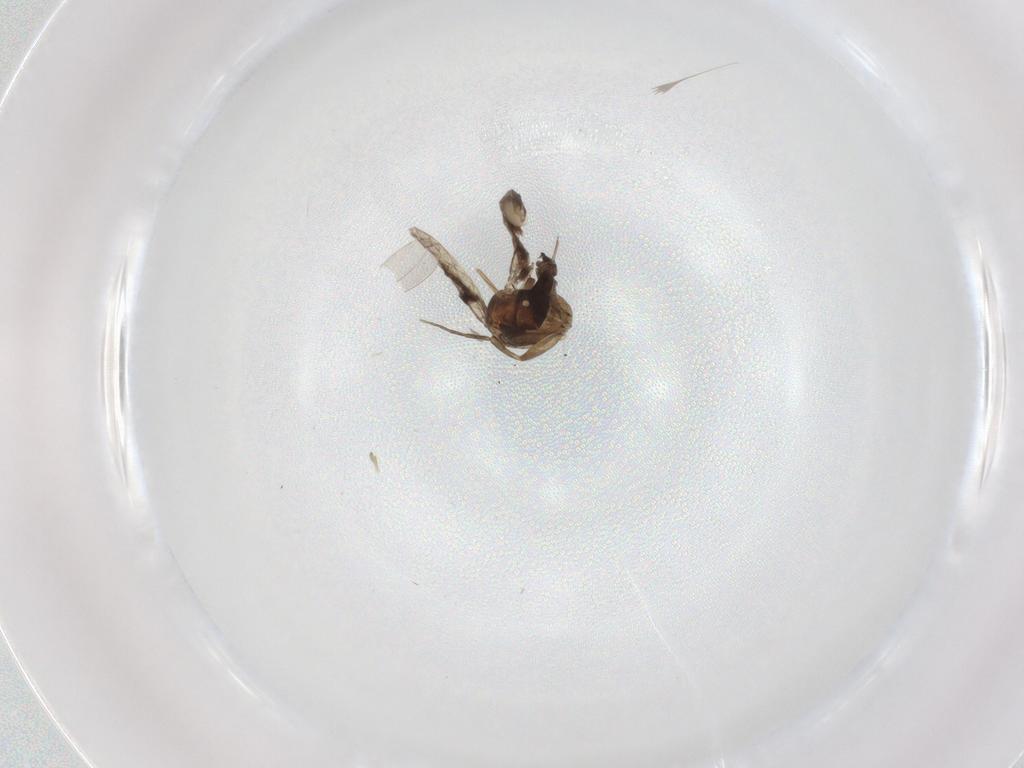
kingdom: Animalia
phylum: Arthropoda
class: Insecta
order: Diptera
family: Phoridae
